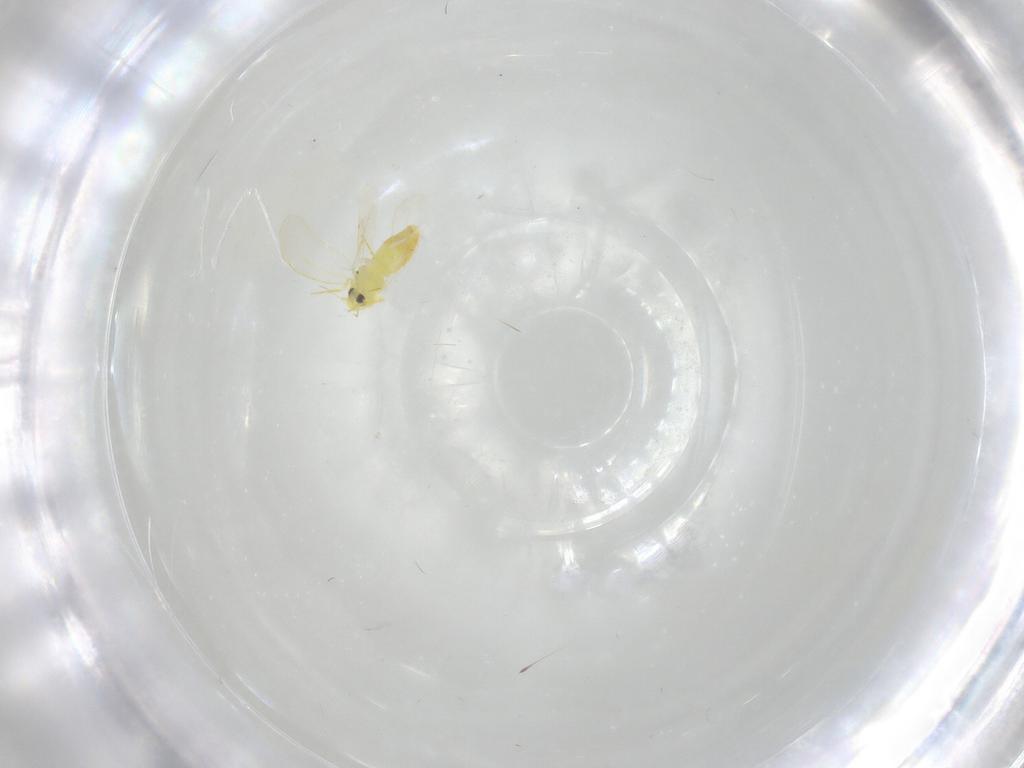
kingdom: Animalia
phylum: Arthropoda
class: Insecta
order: Hemiptera
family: Aleyrodidae
